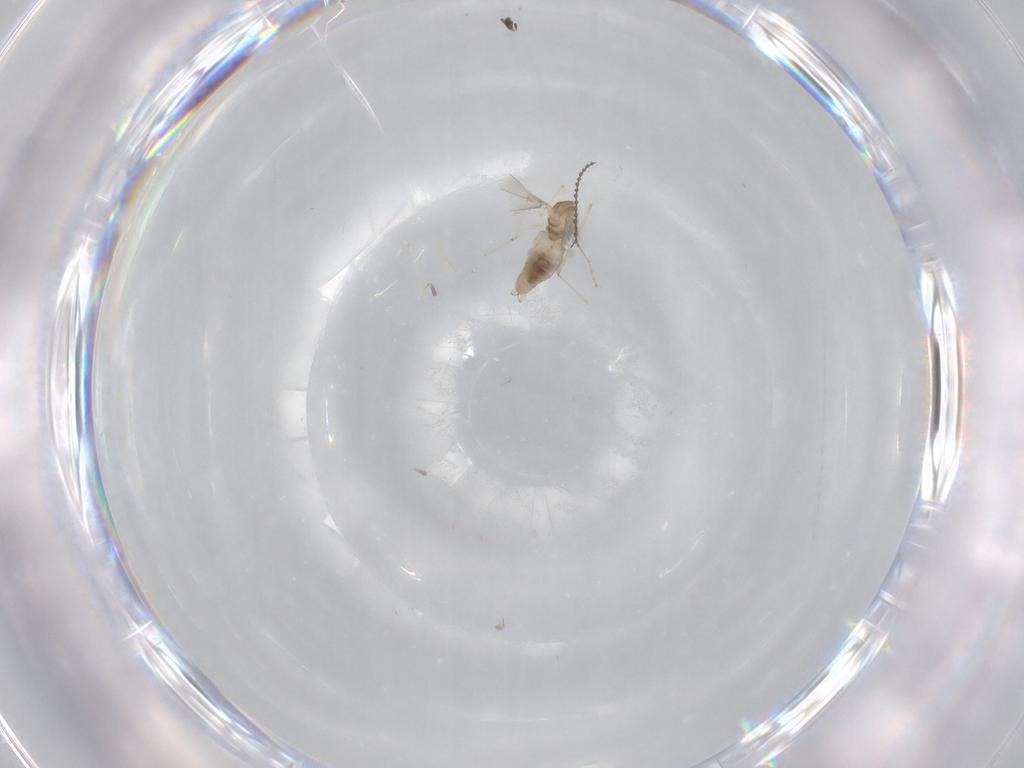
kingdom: Animalia
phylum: Arthropoda
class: Insecta
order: Diptera
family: Cecidomyiidae
